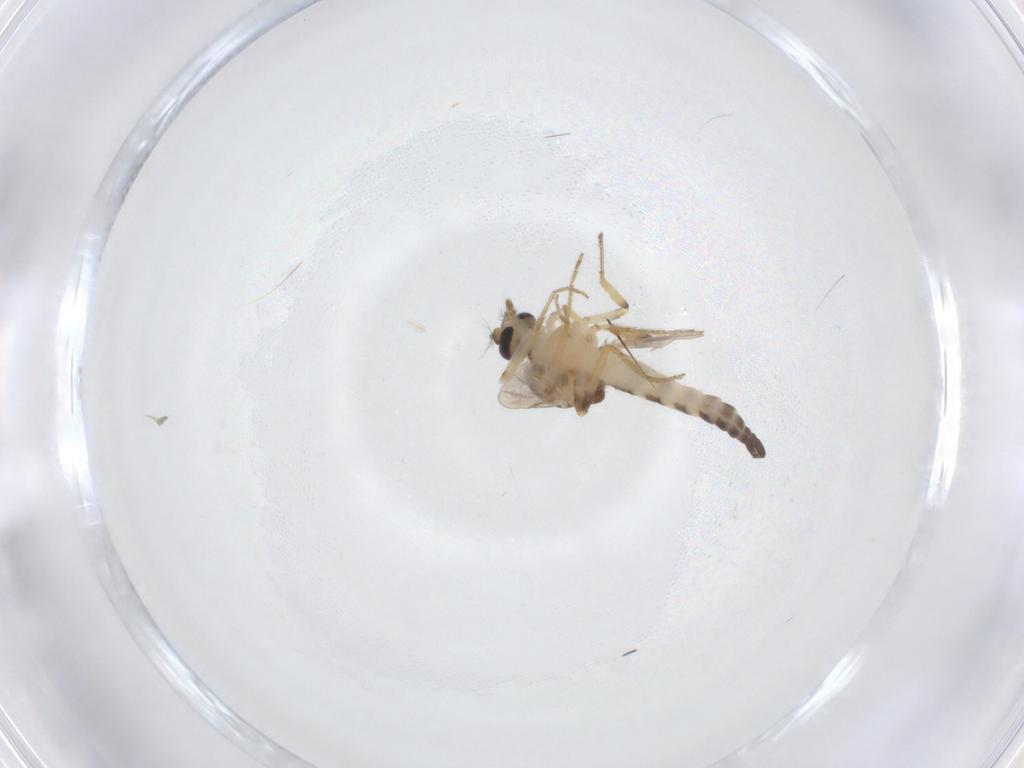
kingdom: Animalia
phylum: Arthropoda
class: Insecta
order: Diptera
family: Ceratopogonidae
